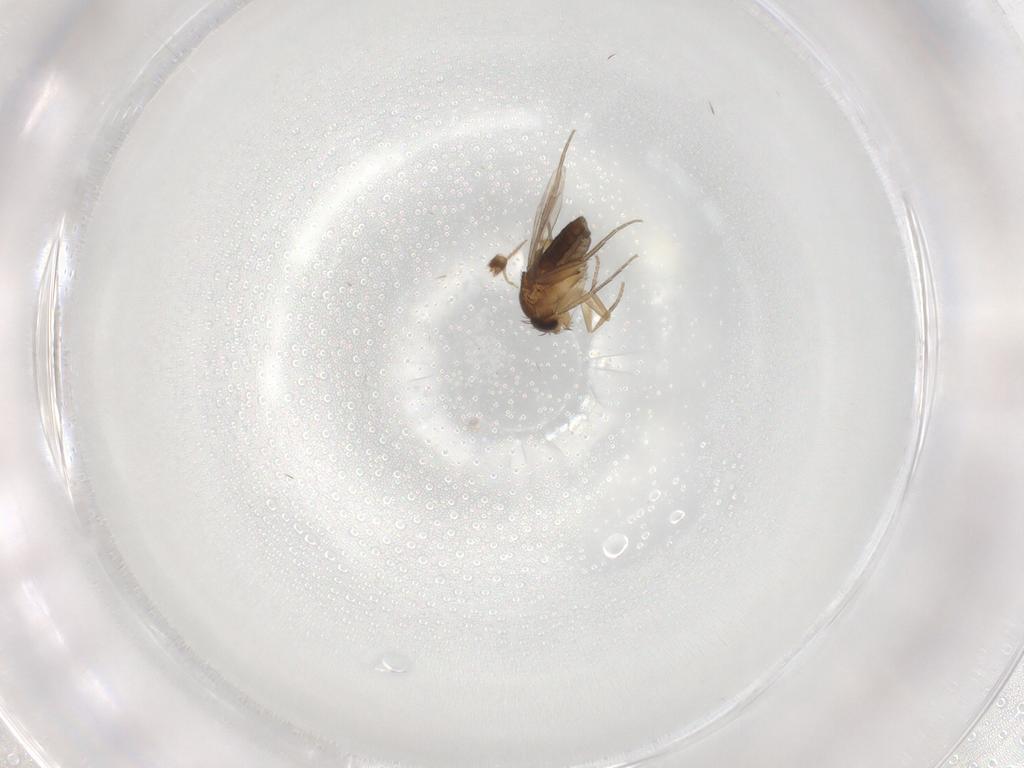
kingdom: Animalia
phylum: Arthropoda
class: Insecta
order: Diptera
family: Phoridae
